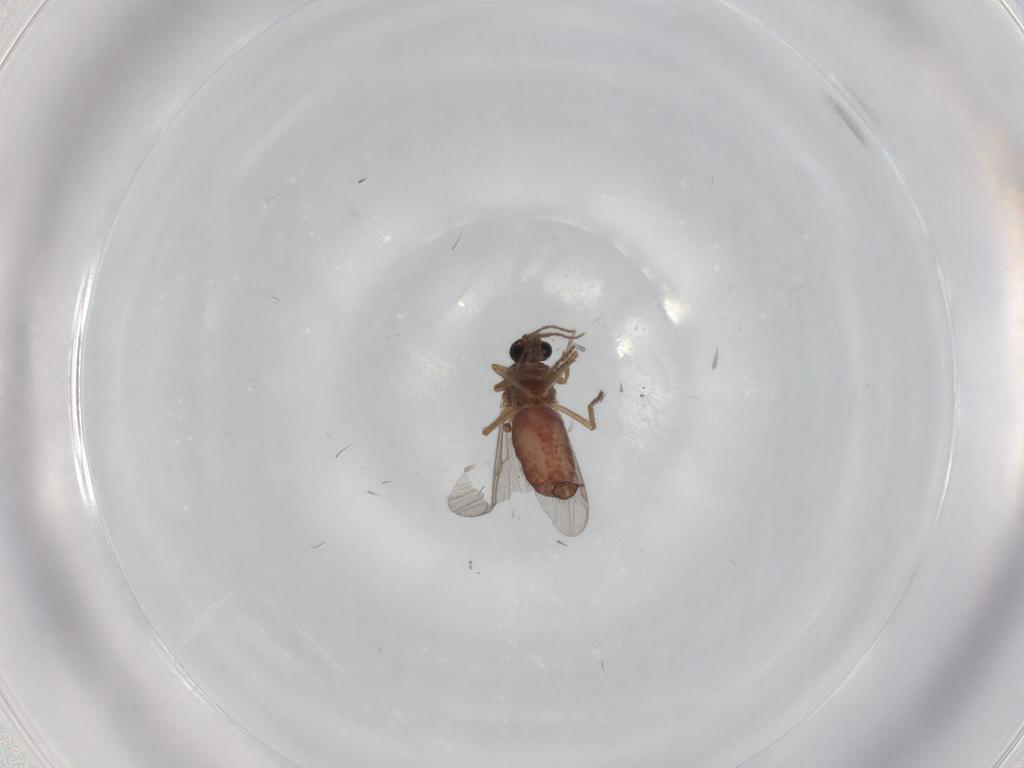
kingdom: Animalia
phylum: Arthropoda
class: Insecta
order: Diptera
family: Ceratopogonidae
